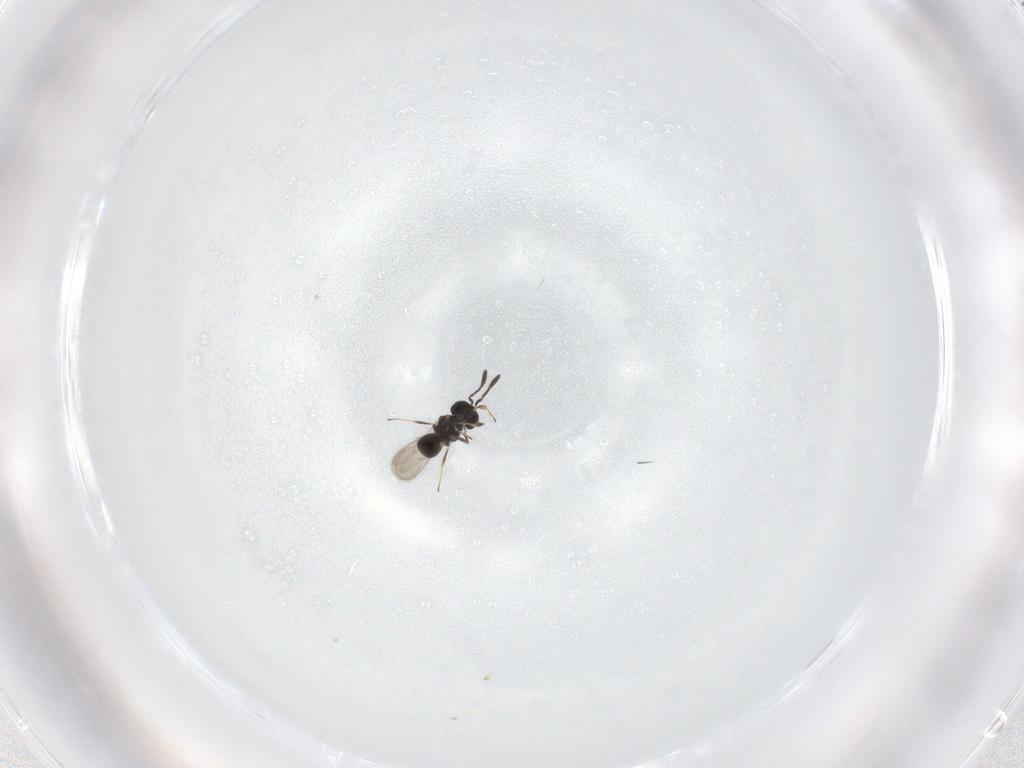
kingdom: Animalia
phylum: Arthropoda
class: Insecta
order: Hymenoptera
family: Scelionidae
